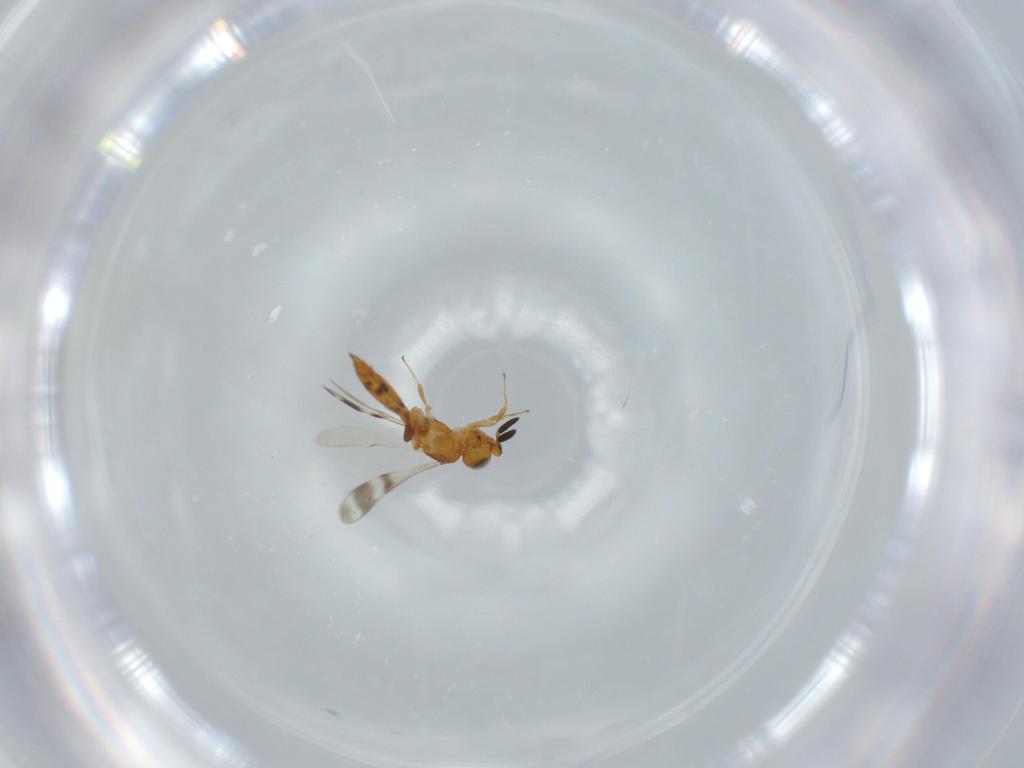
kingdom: Animalia
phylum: Arthropoda
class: Insecta
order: Hymenoptera
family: Scelionidae
